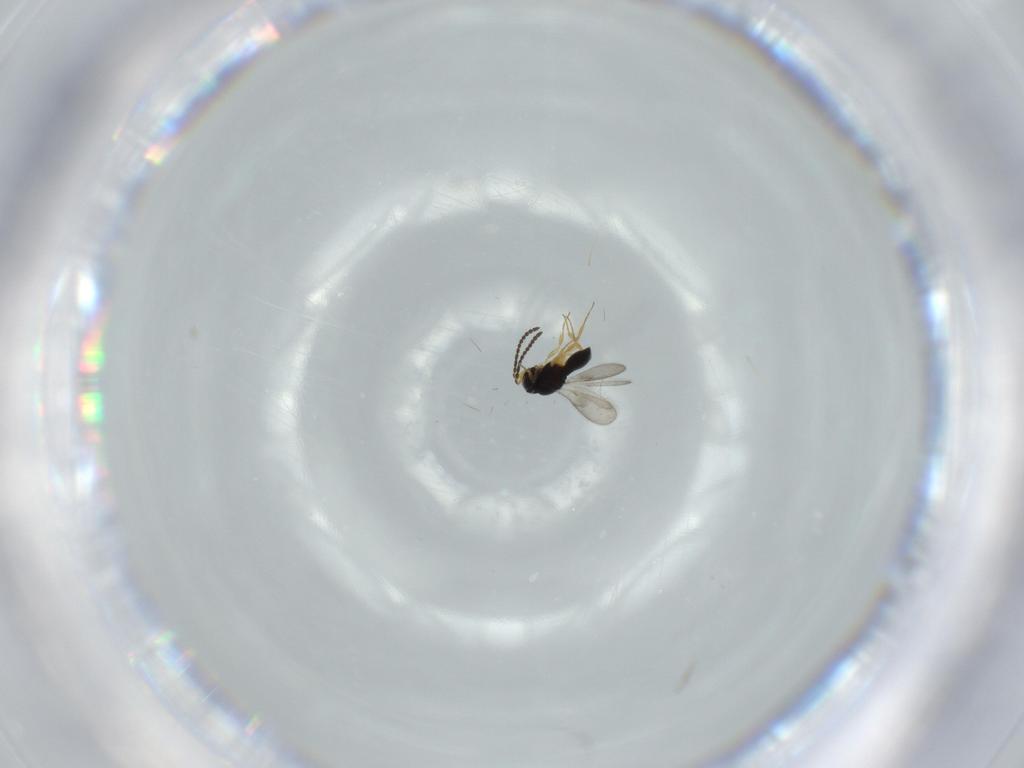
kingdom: Animalia
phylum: Arthropoda
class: Insecta
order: Hymenoptera
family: Scelionidae
